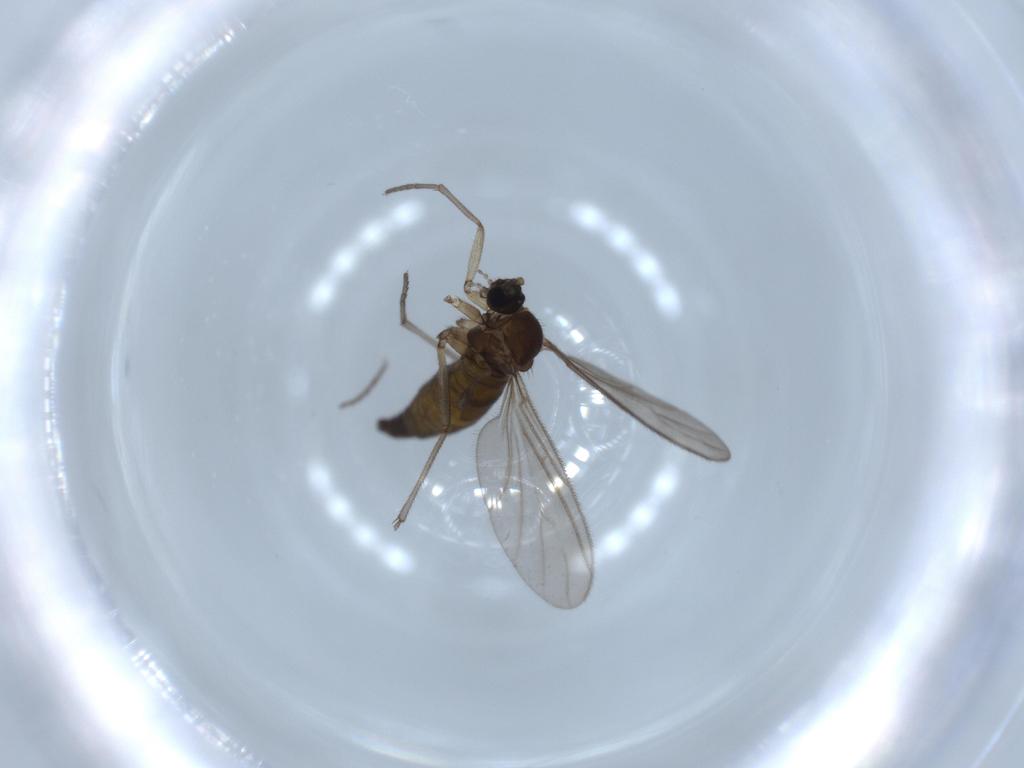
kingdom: Animalia
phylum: Arthropoda
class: Insecta
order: Diptera
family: Sciaridae
